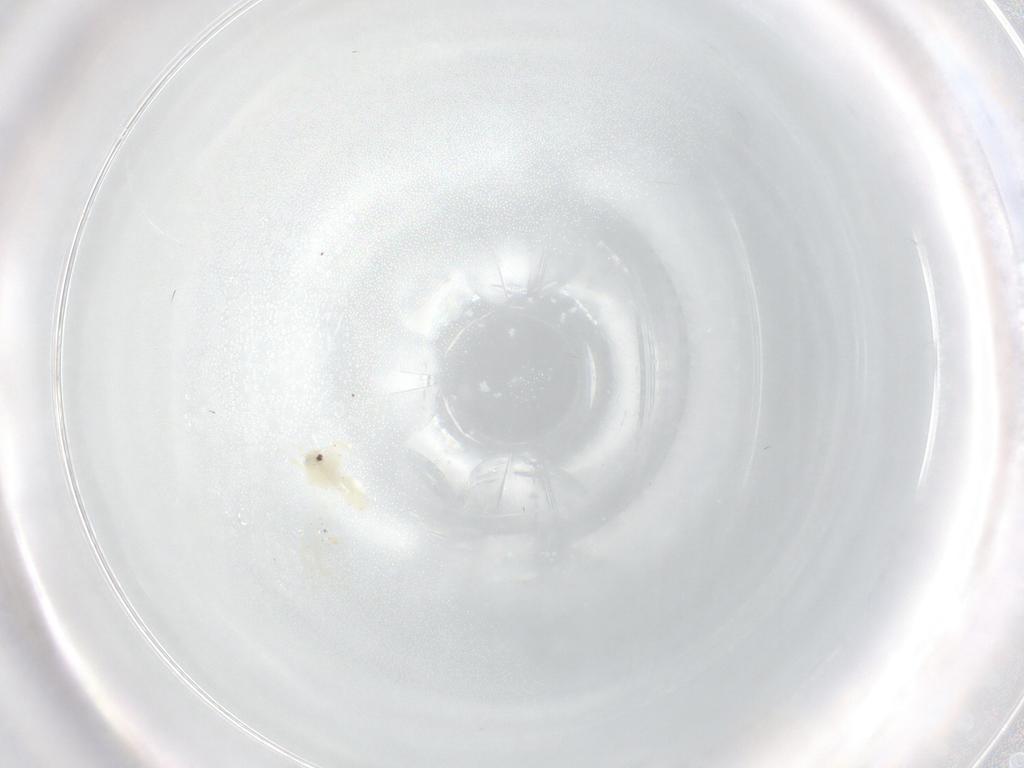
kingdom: Animalia
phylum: Arthropoda
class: Insecta
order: Hemiptera
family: Aleyrodidae
